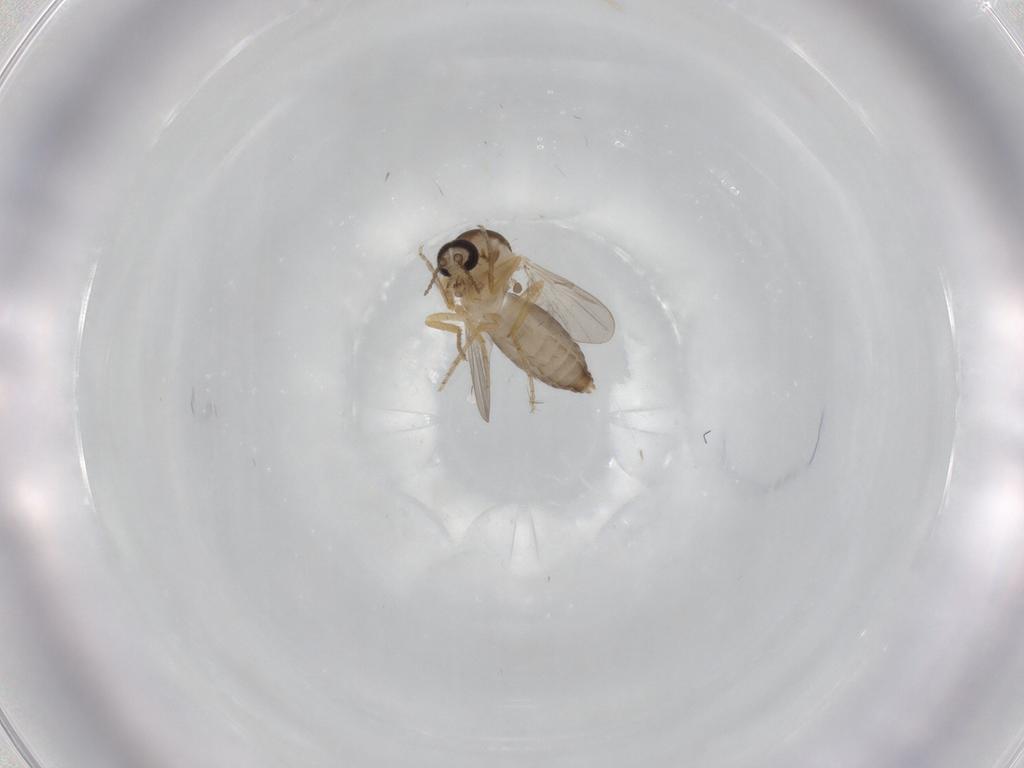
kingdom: Animalia
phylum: Arthropoda
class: Insecta
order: Diptera
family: Ceratopogonidae
